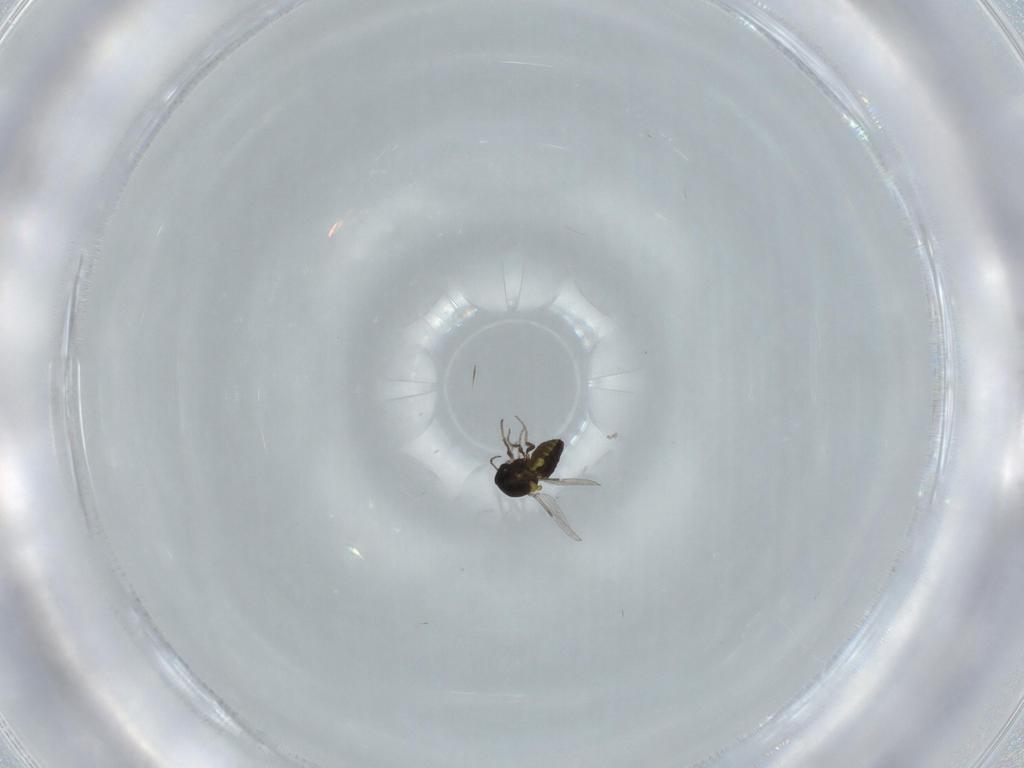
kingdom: Animalia
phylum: Arthropoda
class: Insecta
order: Diptera
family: Ceratopogonidae
